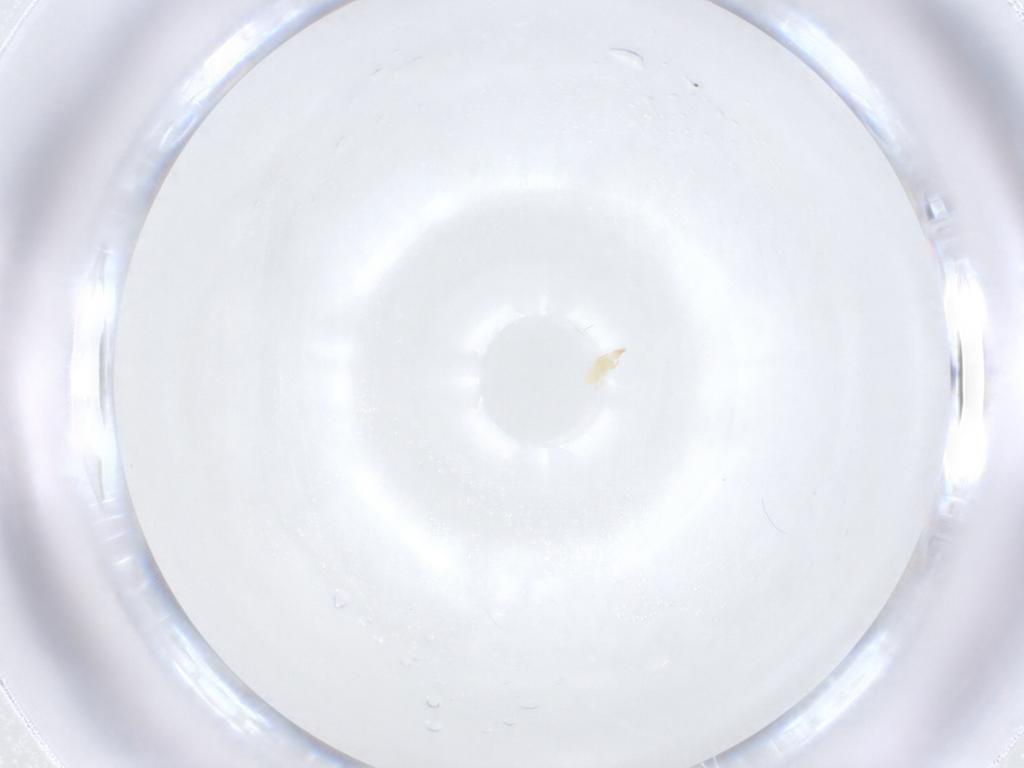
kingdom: Animalia
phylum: Arthropoda
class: Arachnida
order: Trombidiformes
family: Cunaxidae
